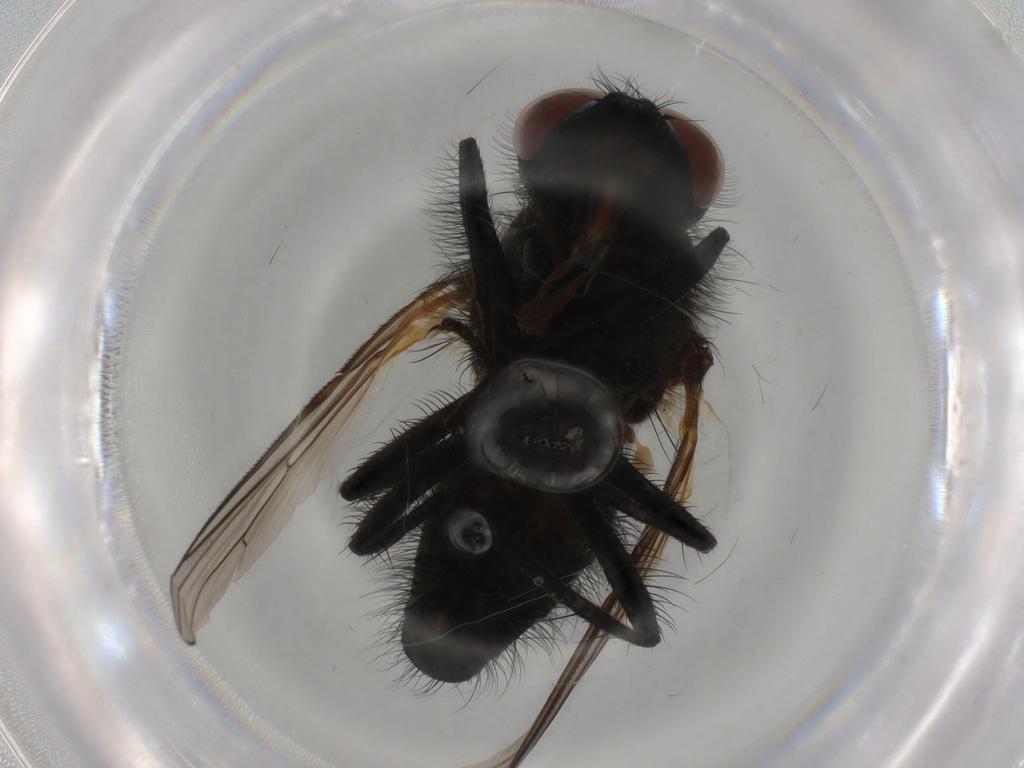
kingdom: Animalia
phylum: Arthropoda
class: Insecta
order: Diptera
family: Anthomyiidae
